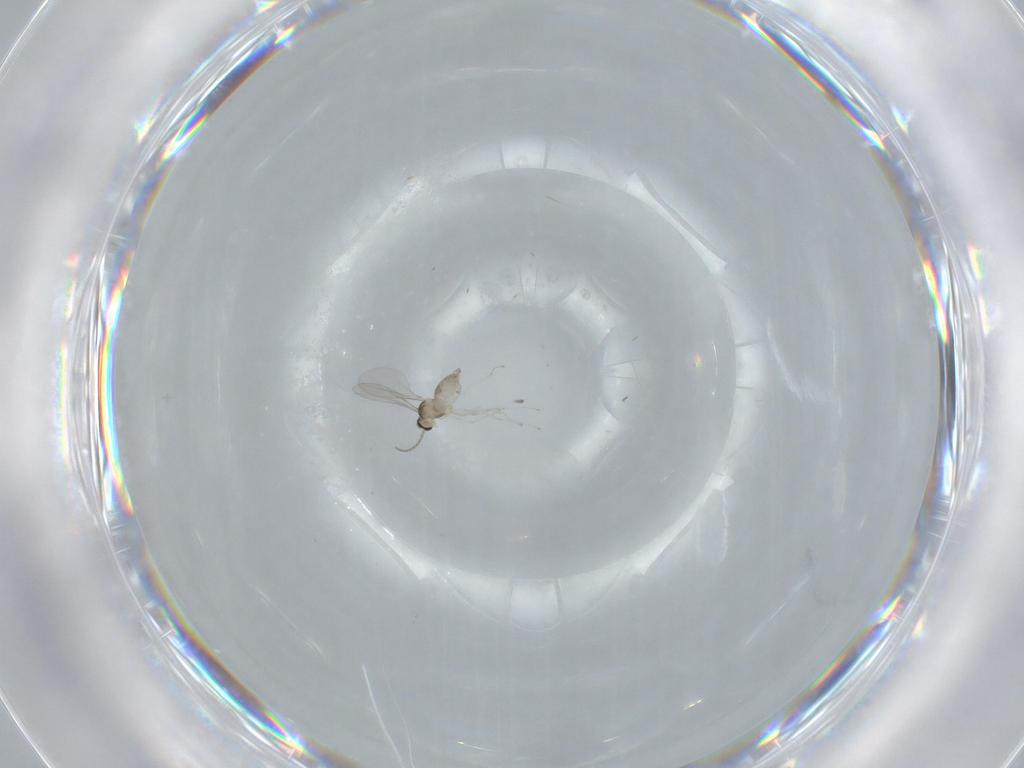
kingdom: Animalia
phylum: Arthropoda
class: Insecta
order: Diptera
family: Cecidomyiidae
